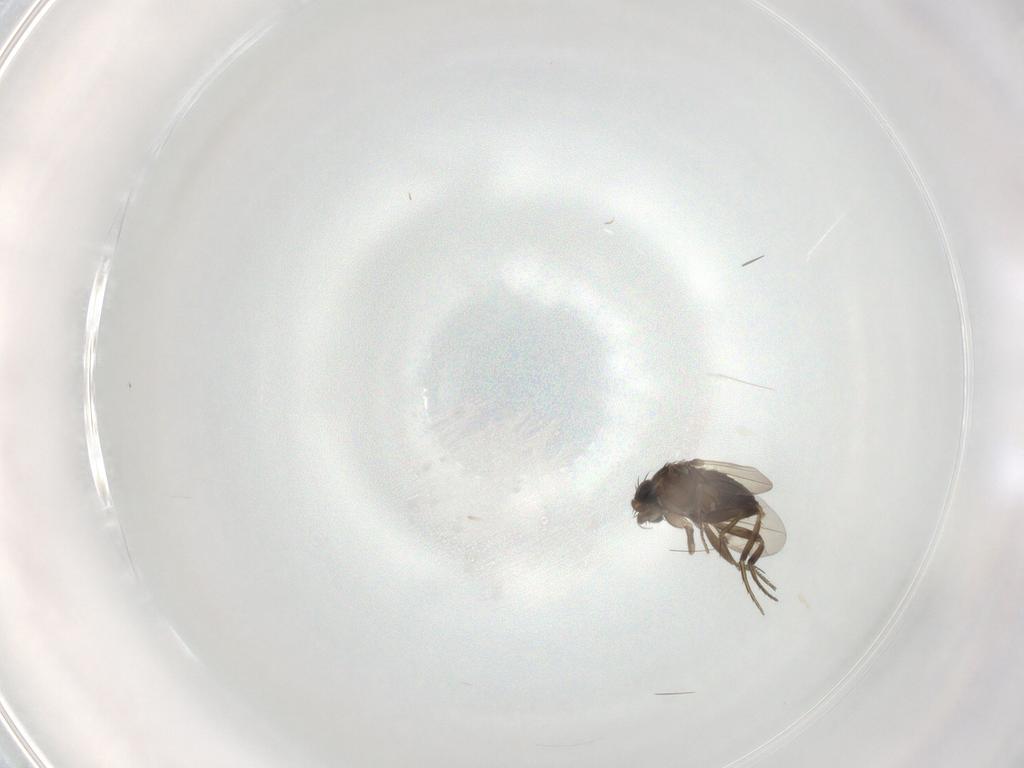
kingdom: Animalia
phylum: Arthropoda
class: Insecta
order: Diptera
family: Phoridae
